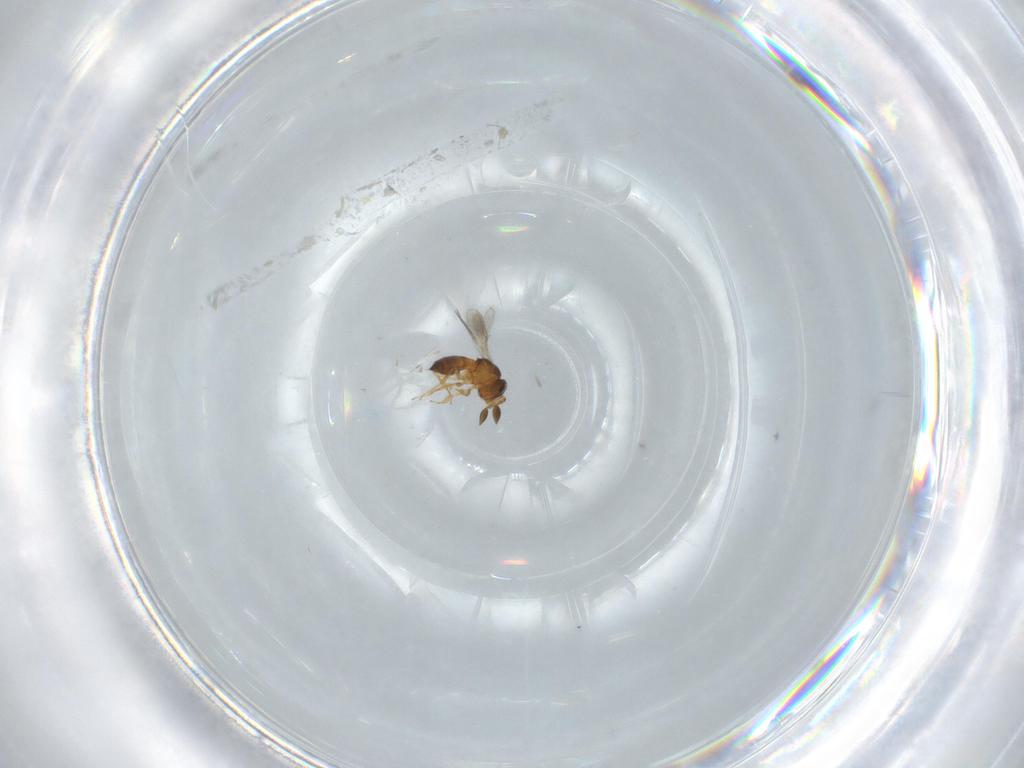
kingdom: Animalia
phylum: Arthropoda
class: Insecta
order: Hymenoptera
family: Scelionidae
